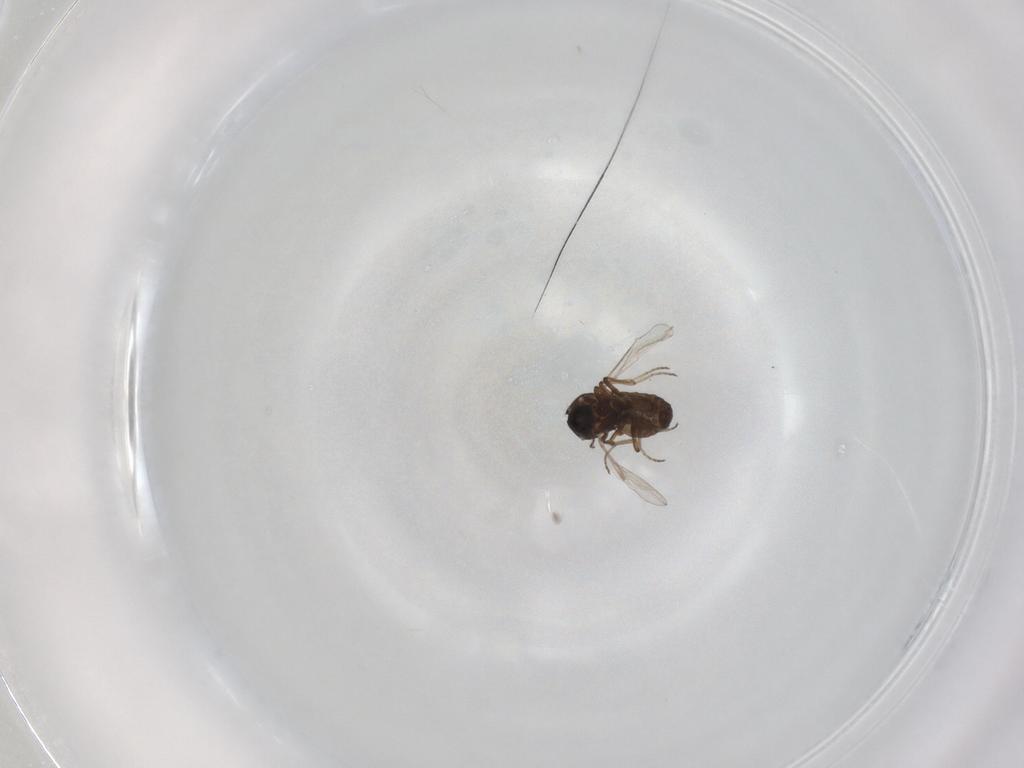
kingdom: Animalia
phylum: Arthropoda
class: Insecta
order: Diptera
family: Ceratopogonidae
